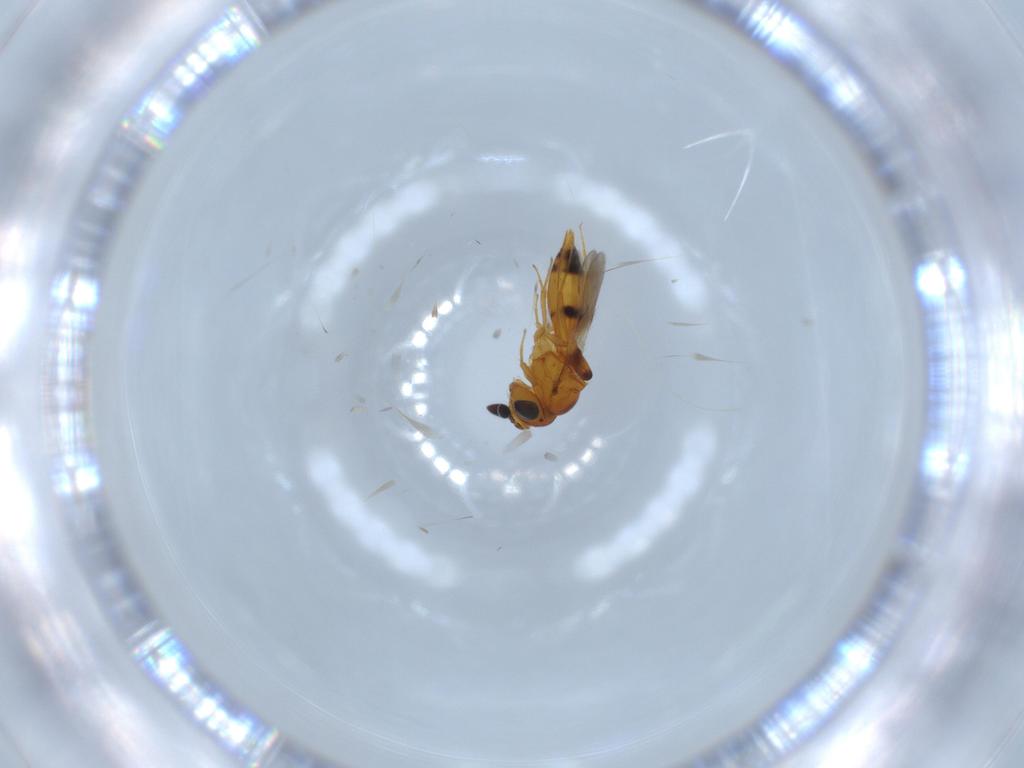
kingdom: Animalia
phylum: Arthropoda
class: Insecta
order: Hymenoptera
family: Scelionidae
